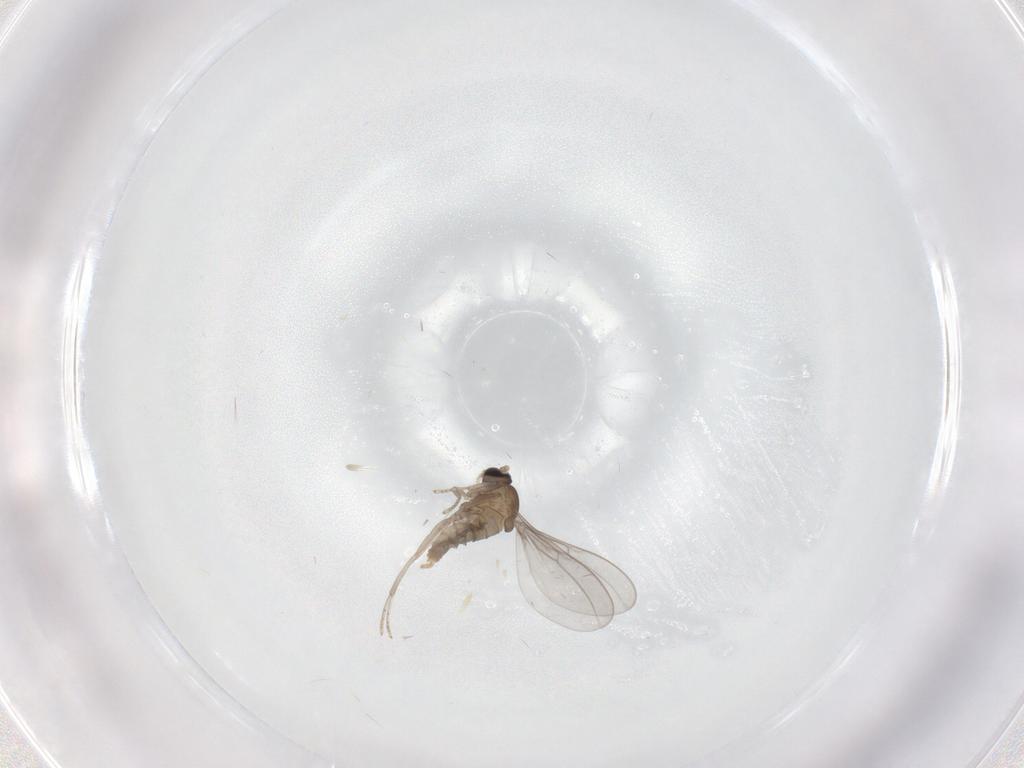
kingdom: Animalia
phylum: Arthropoda
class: Insecta
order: Diptera
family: Cecidomyiidae
